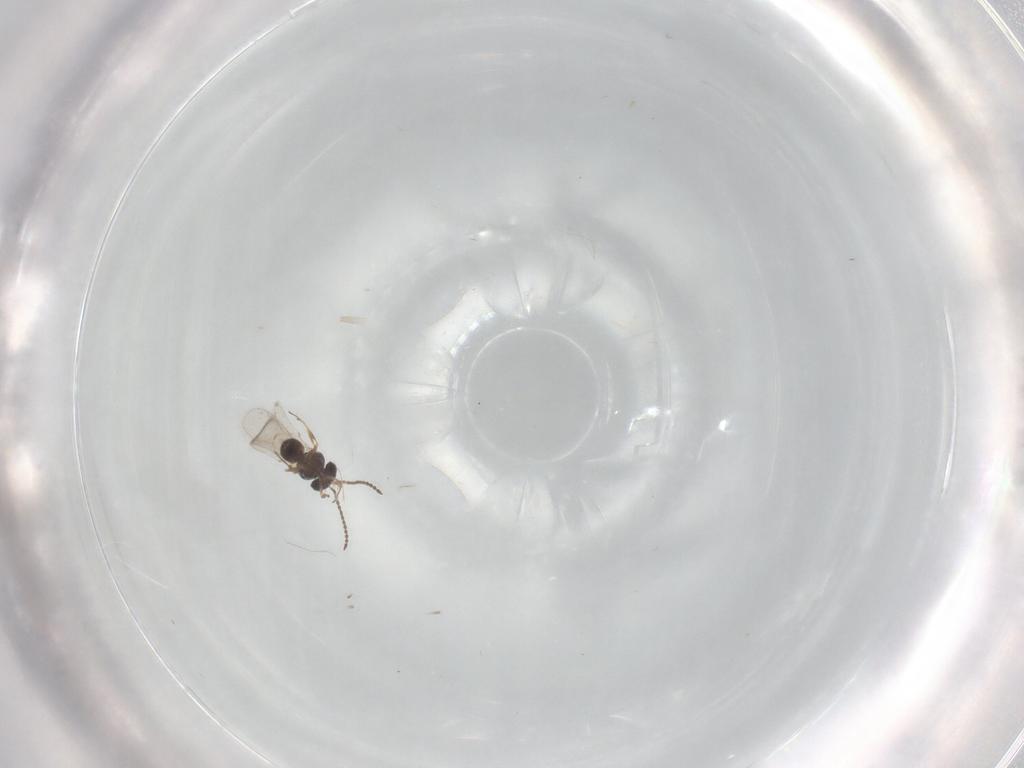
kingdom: Animalia
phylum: Arthropoda
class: Insecta
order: Hymenoptera
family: Scelionidae
